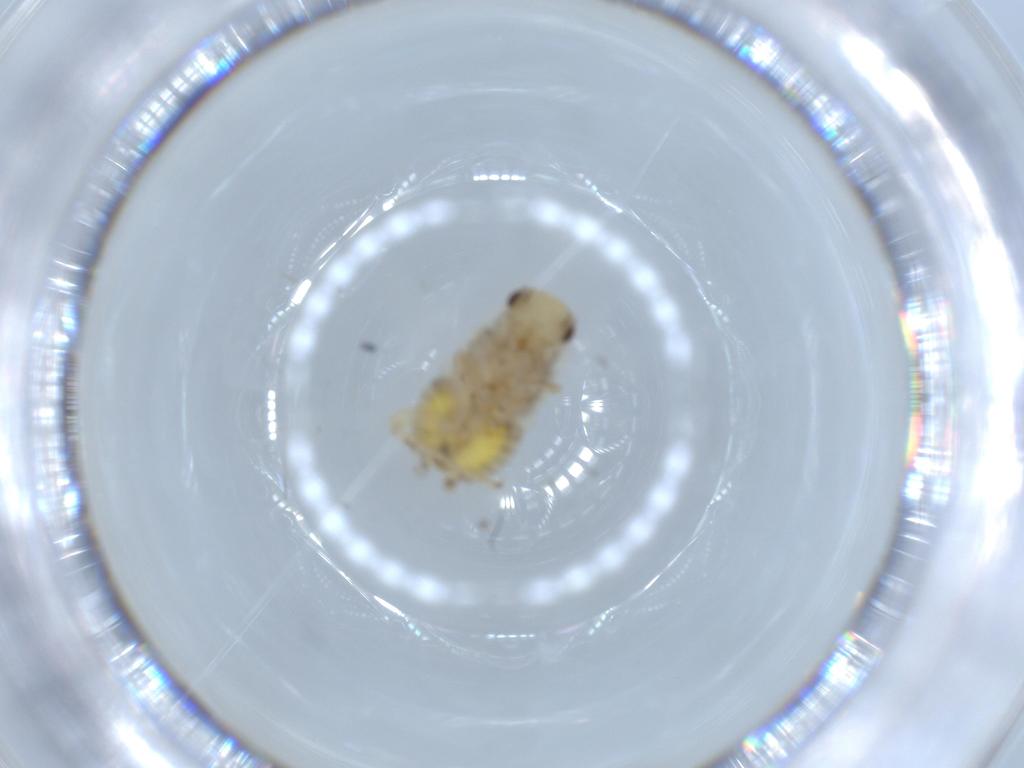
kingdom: Animalia
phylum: Arthropoda
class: Insecta
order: Blattodea
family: Ectobiidae
